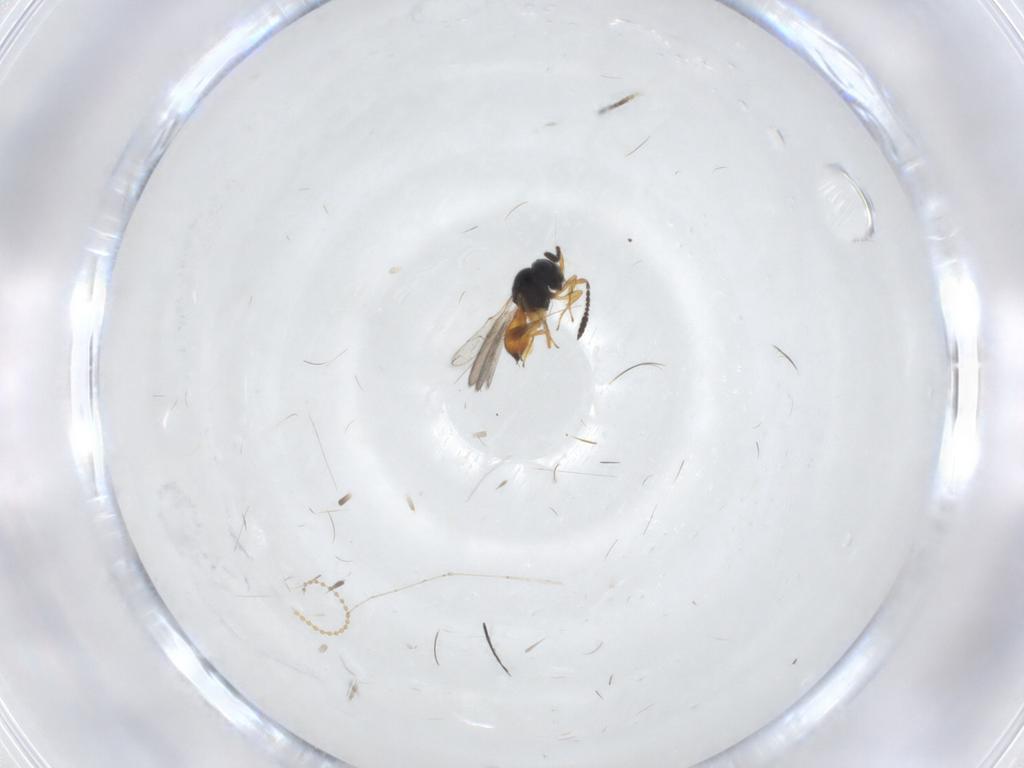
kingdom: Animalia
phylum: Arthropoda
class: Insecta
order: Hymenoptera
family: Scelionidae
